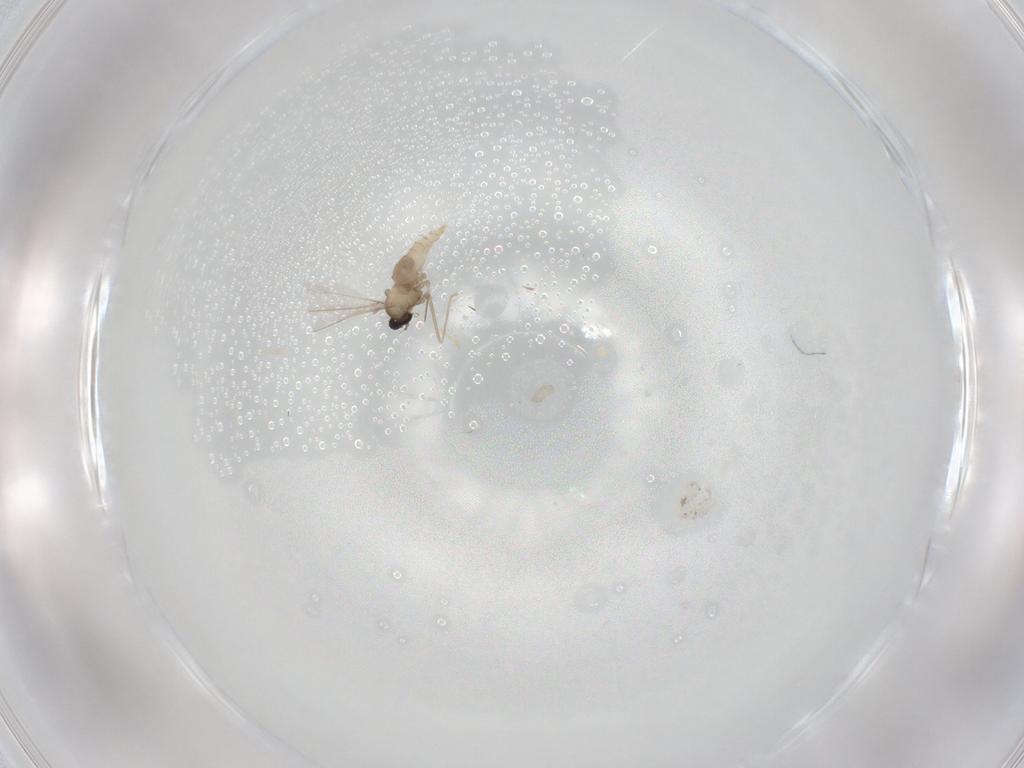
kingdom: Animalia
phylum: Arthropoda
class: Insecta
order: Diptera
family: Cecidomyiidae
